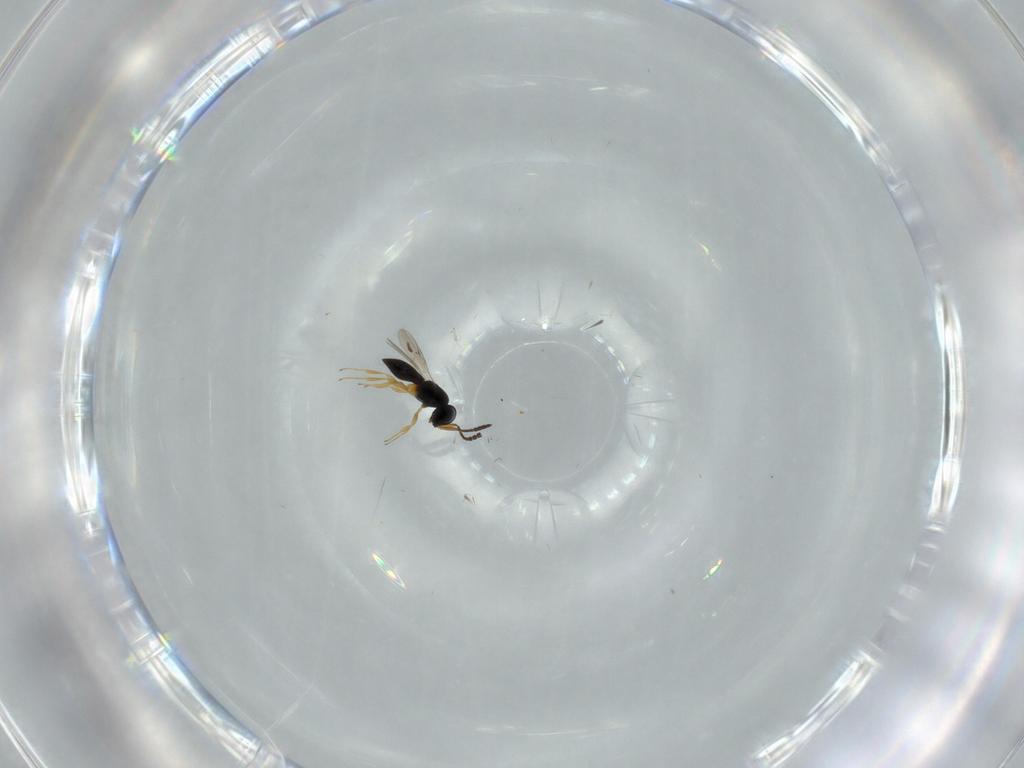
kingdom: Animalia
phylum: Arthropoda
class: Insecta
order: Hymenoptera
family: Scelionidae
